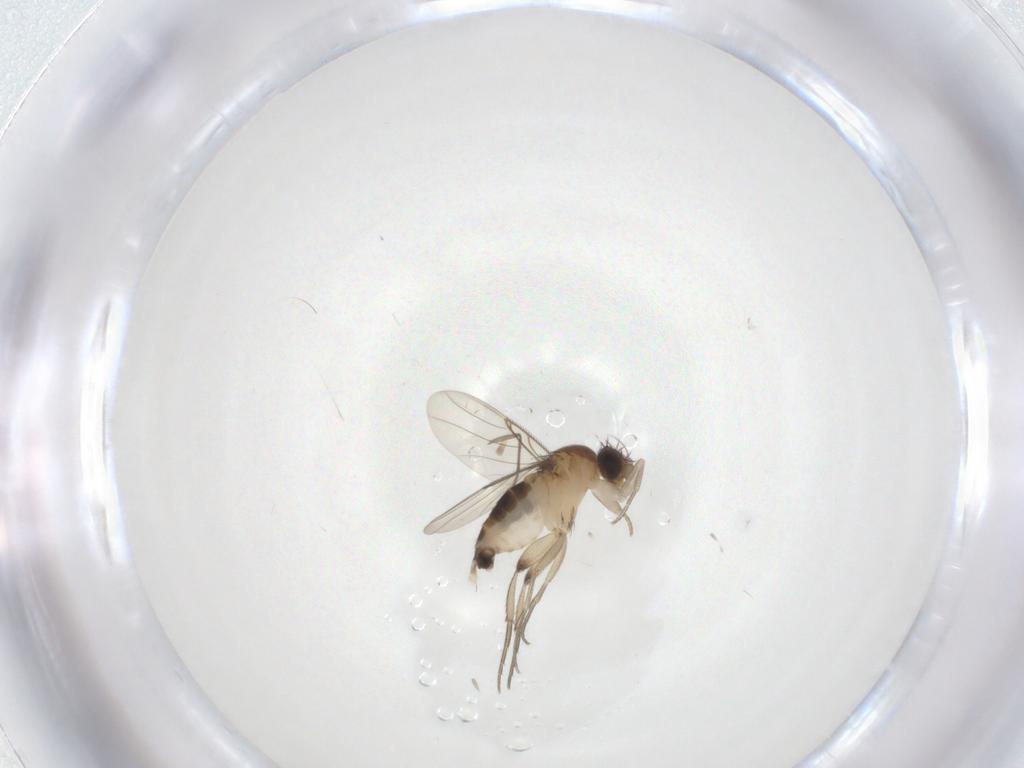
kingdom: Animalia
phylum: Arthropoda
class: Insecta
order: Diptera
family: Phoridae
